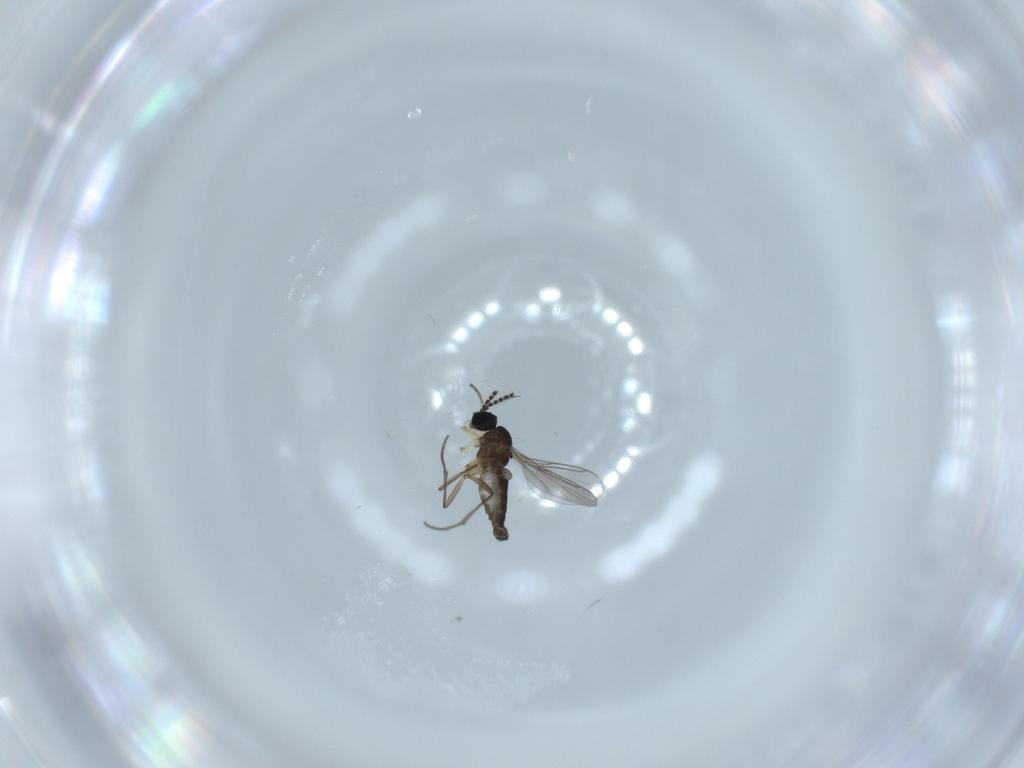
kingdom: Animalia
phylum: Arthropoda
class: Insecta
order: Diptera
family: Sciaridae
